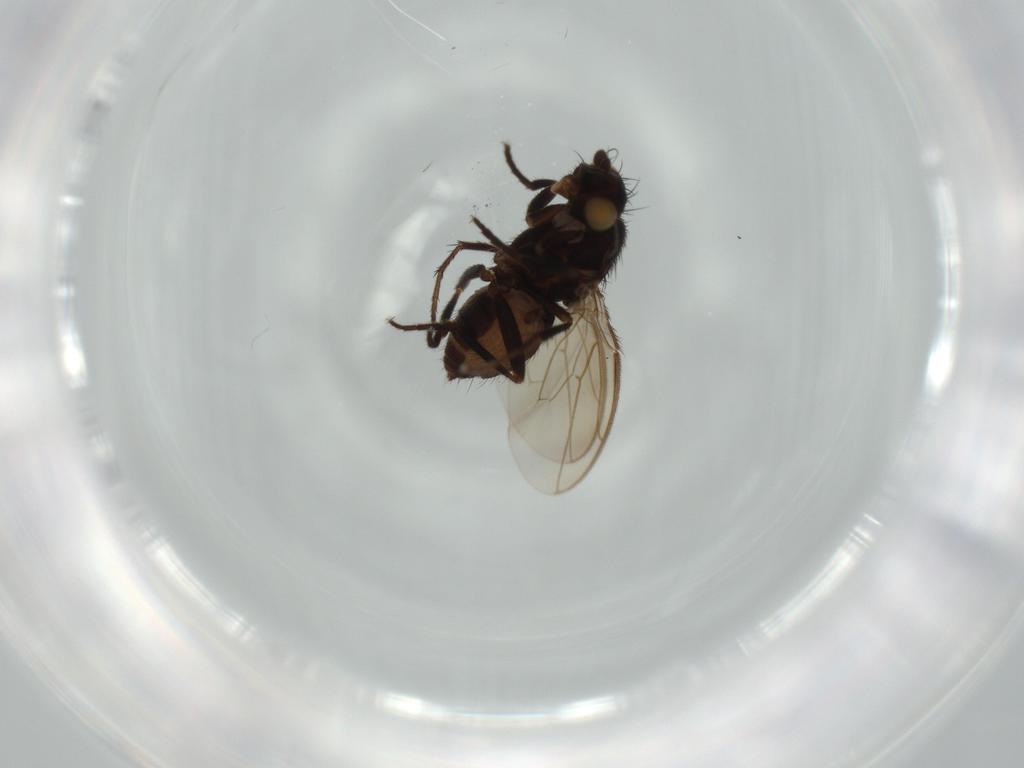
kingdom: Animalia
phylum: Arthropoda
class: Insecta
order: Diptera
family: Sphaeroceridae
